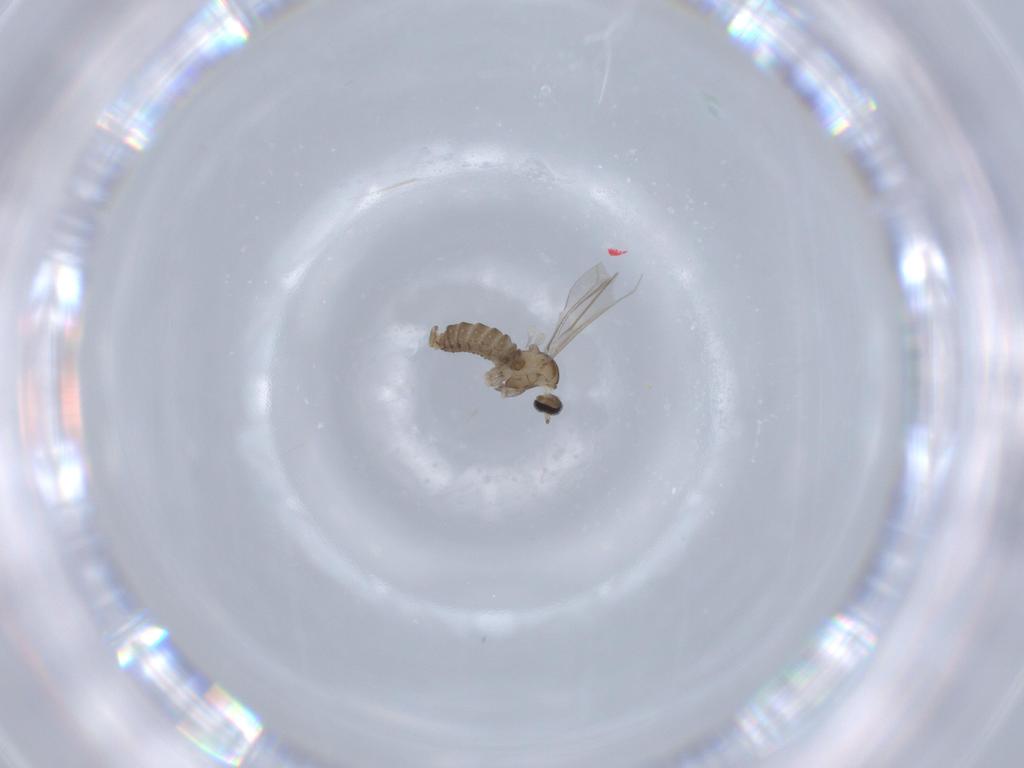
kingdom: Animalia
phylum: Arthropoda
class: Insecta
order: Diptera
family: Cecidomyiidae
